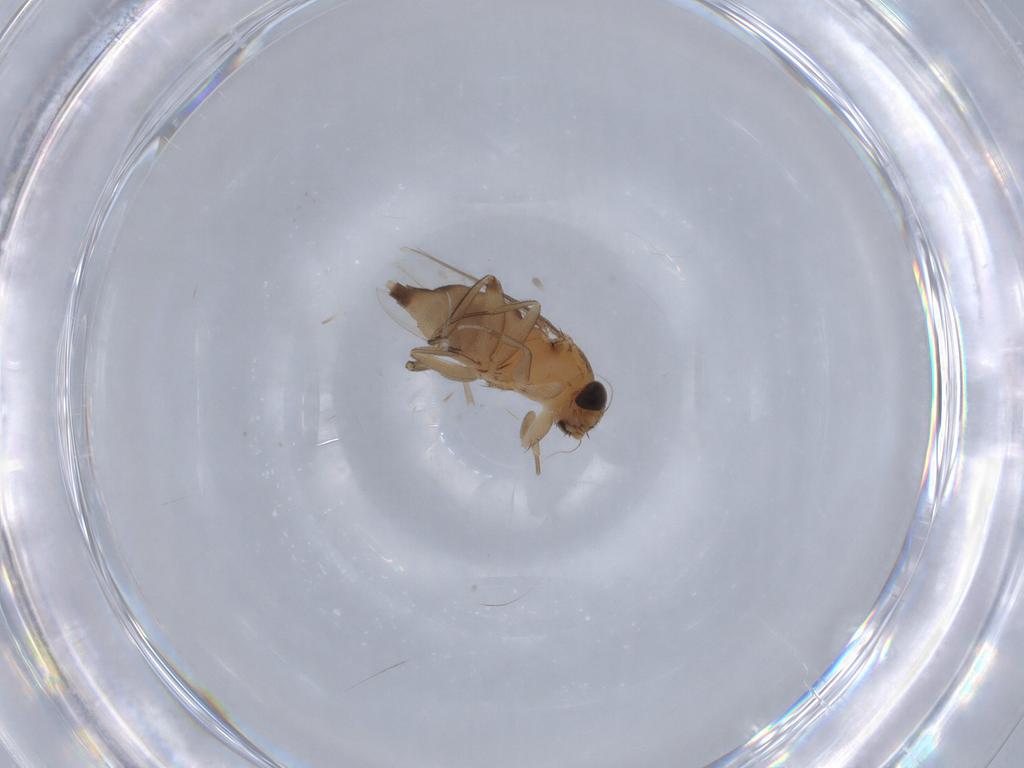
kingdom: Animalia
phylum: Arthropoda
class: Insecta
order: Diptera
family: Phoridae
